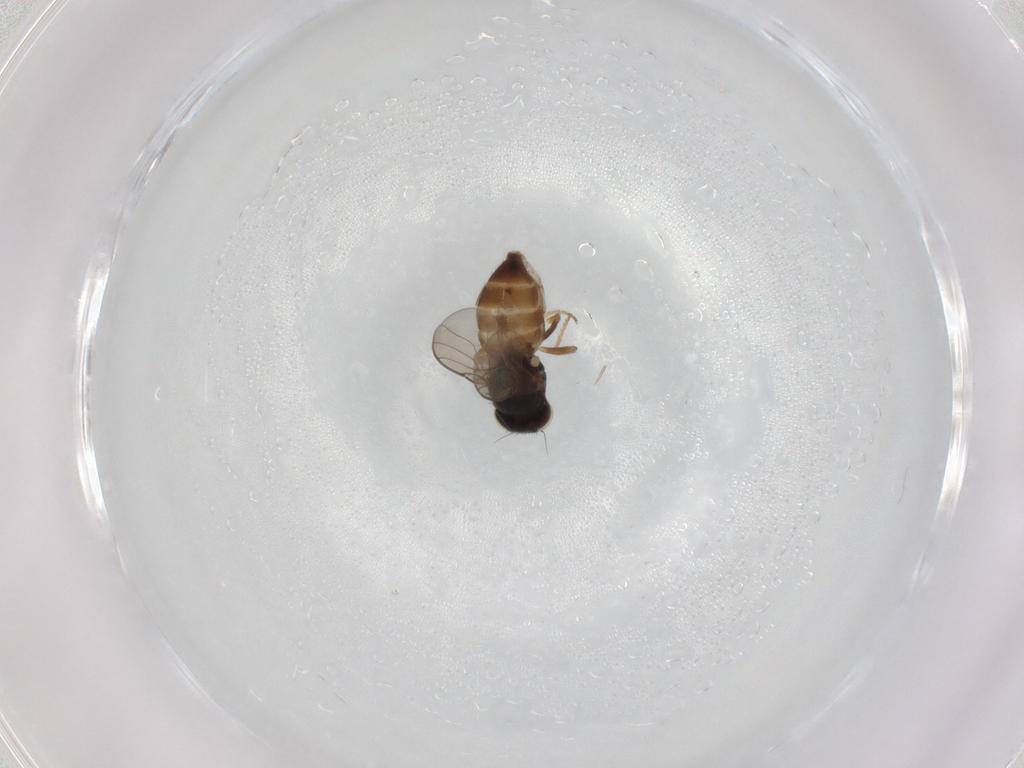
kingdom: Animalia
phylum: Arthropoda
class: Insecta
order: Diptera
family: Chloropidae
